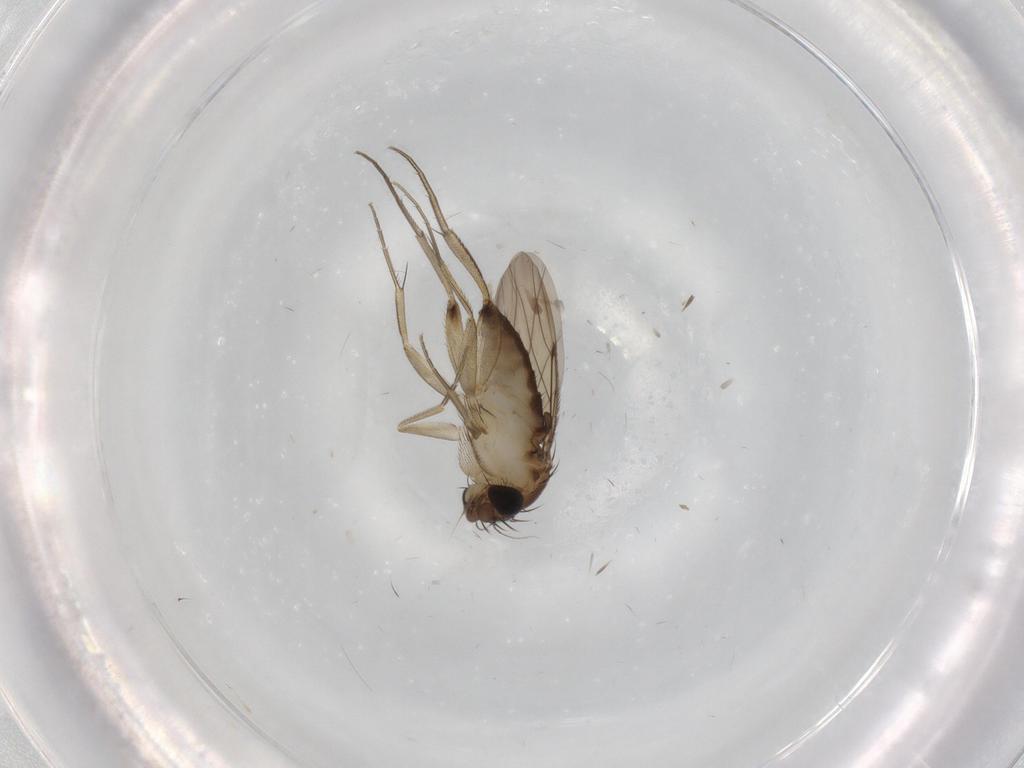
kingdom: Animalia
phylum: Arthropoda
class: Insecta
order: Diptera
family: Phoridae
